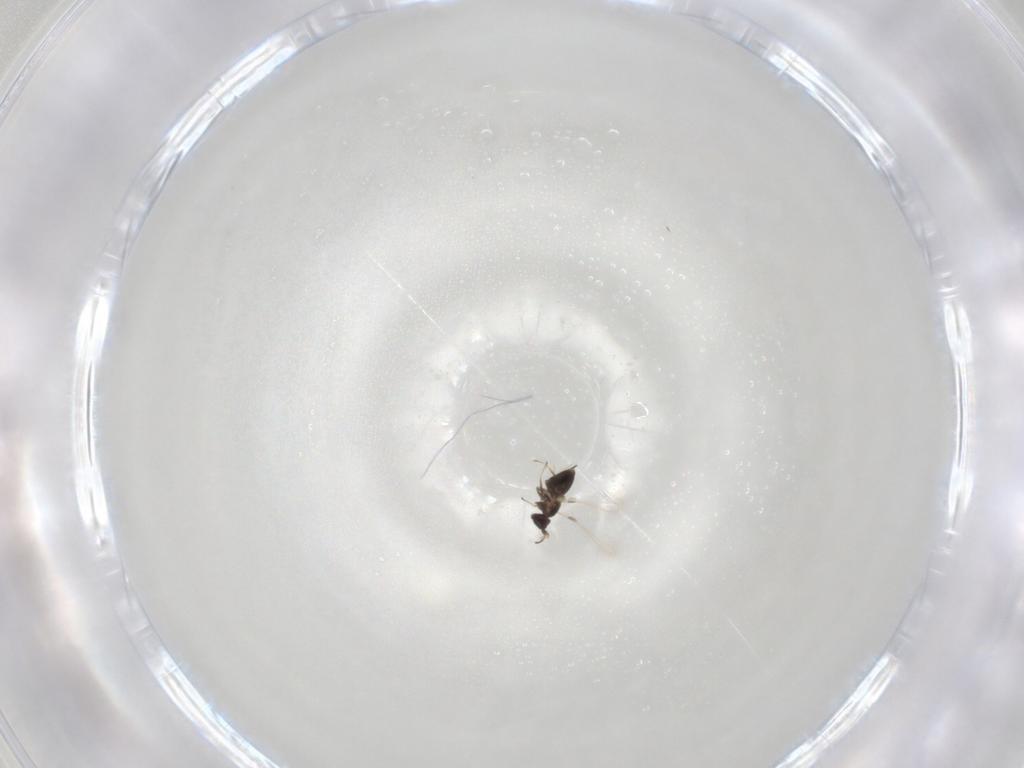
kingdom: Animalia
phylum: Arthropoda
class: Insecta
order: Hymenoptera
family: Mymaridae
